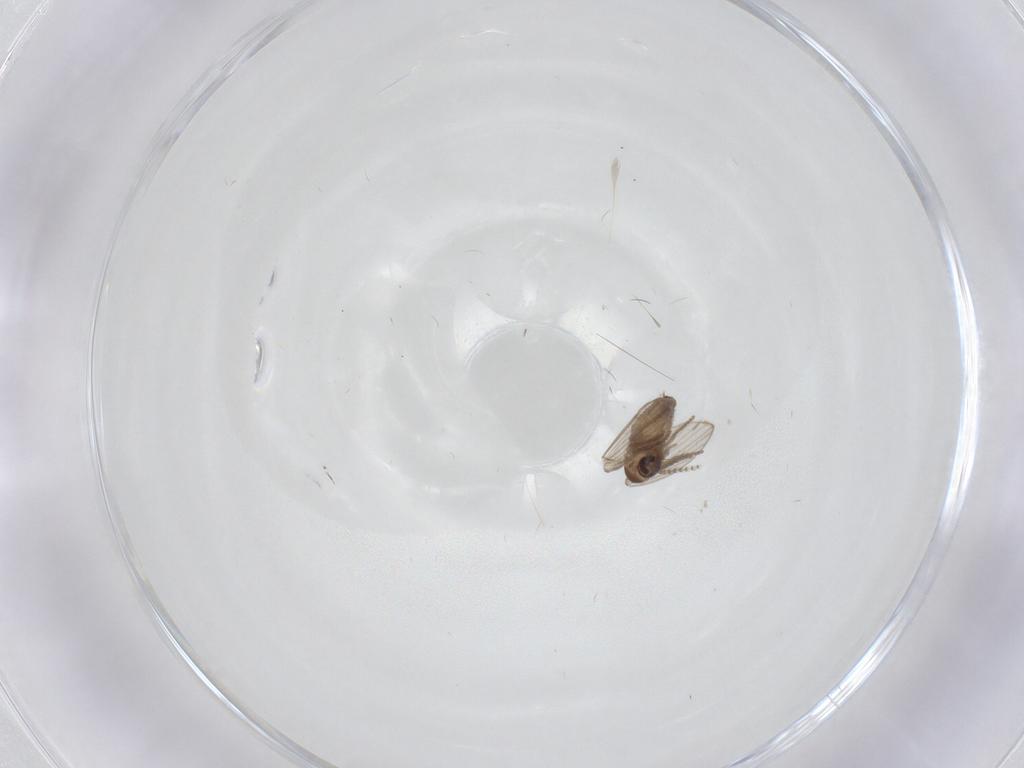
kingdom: Animalia
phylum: Arthropoda
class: Insecta
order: Diptera
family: Psychodidae
